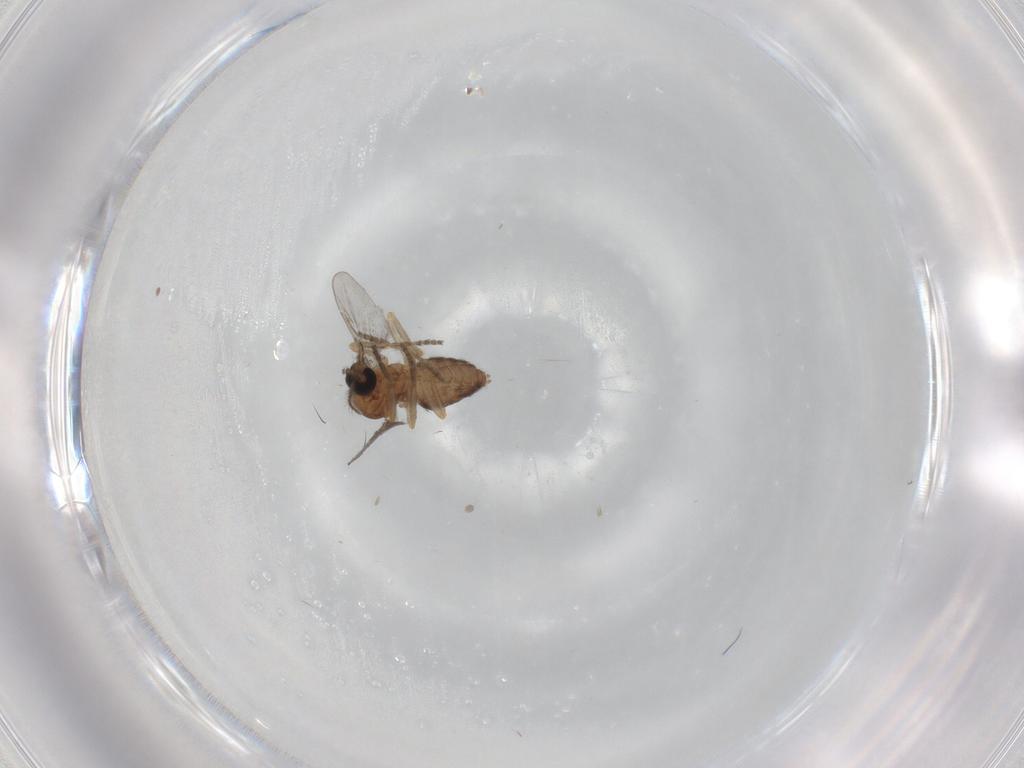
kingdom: Animalia
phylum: Arthropoda
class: Insecta
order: Diptera
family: Ceratopogonidae
